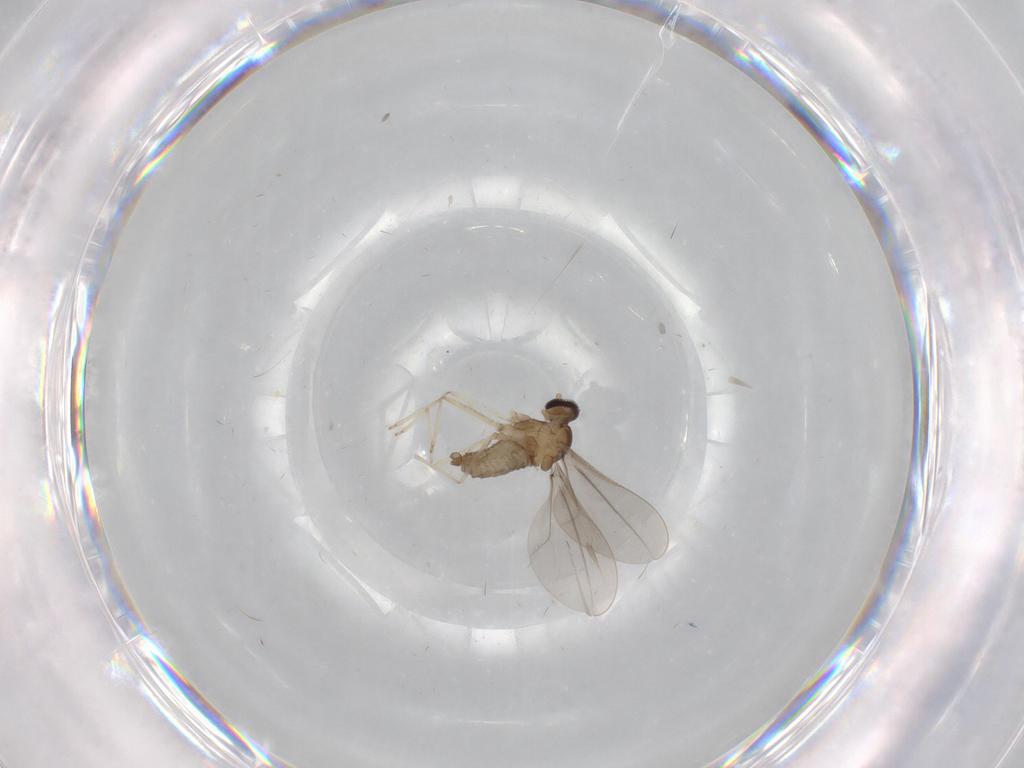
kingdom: Animalia
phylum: Arthropoda
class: Insecta
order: Diptera
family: Cecidomyiidae
